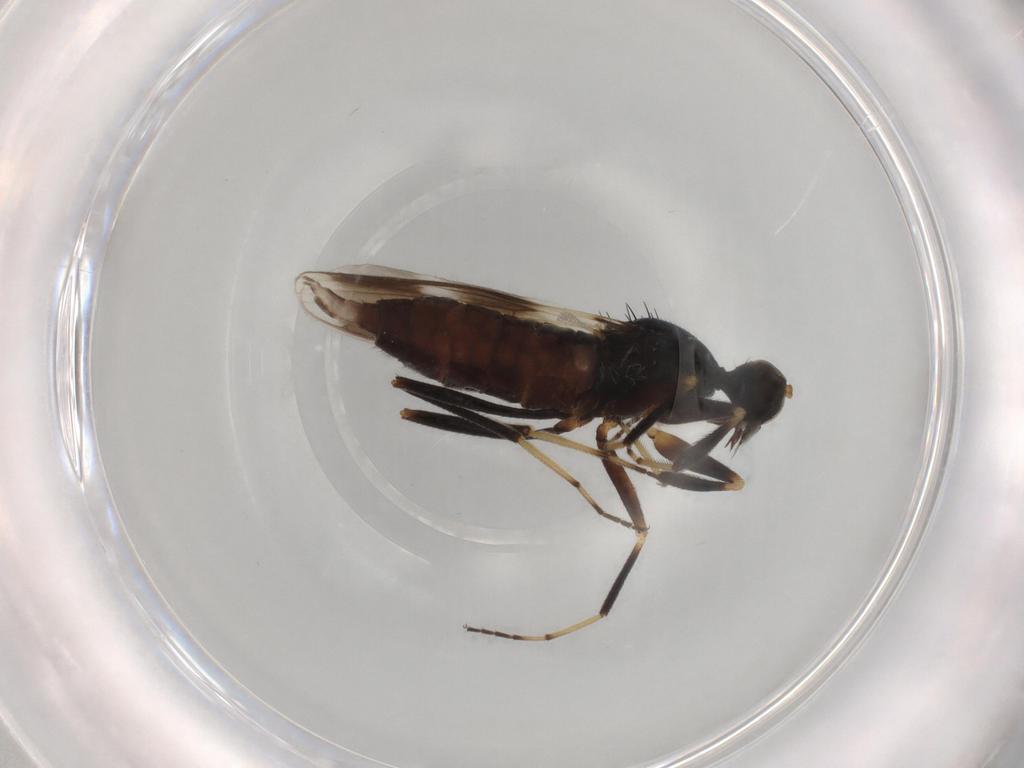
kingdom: Animalia
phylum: Arthropoda
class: Insecta
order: Diptera
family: Hybotidae
